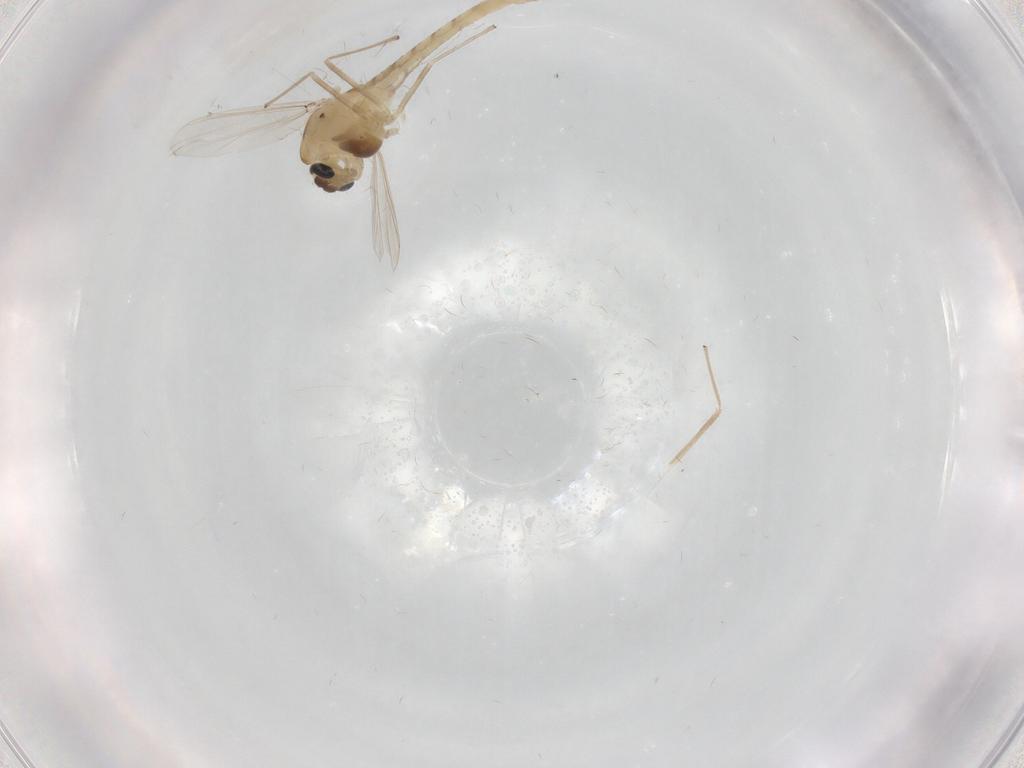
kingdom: Animalia
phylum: Arthropoda
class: Insecta
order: Diptera
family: Chironomidae
